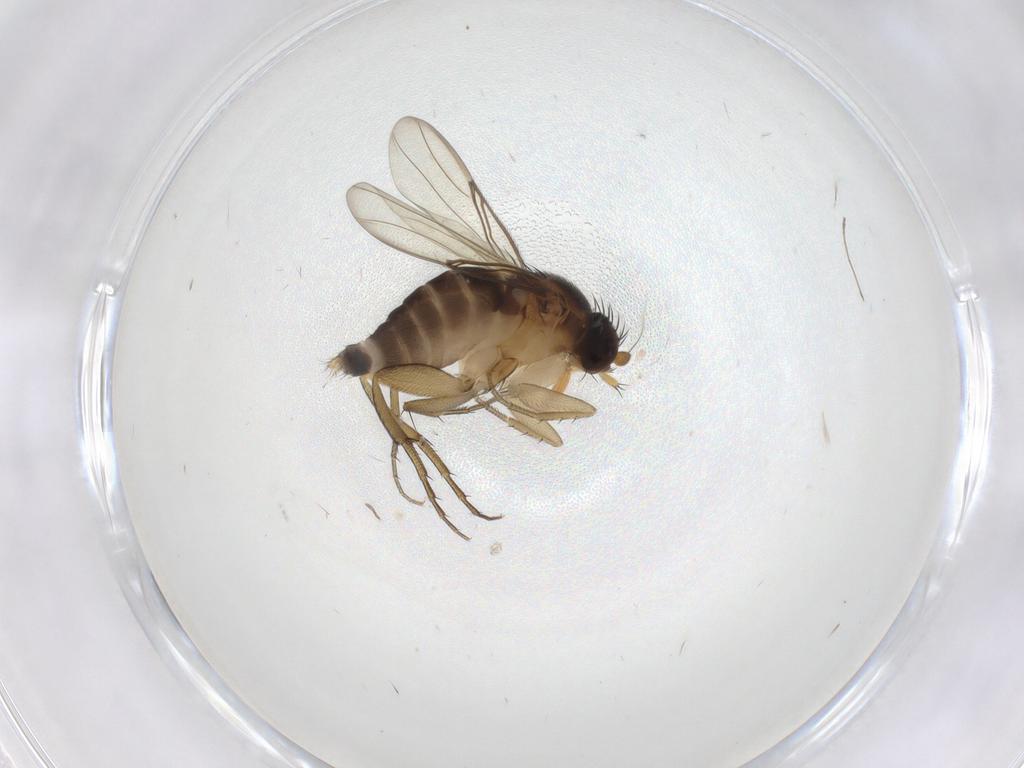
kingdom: Animalia
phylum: Arthropoda
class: Insecta
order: Diptera
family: Phoridae
